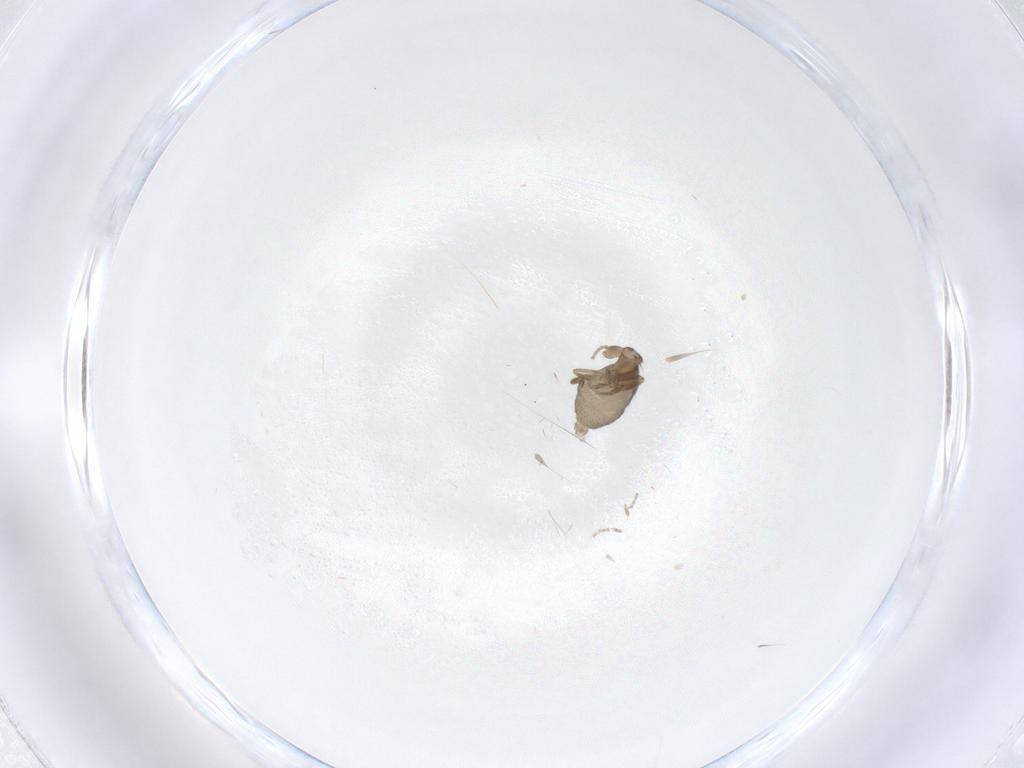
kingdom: Animalia
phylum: Arthropoda
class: Insecta
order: Diptera
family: Phoridae
